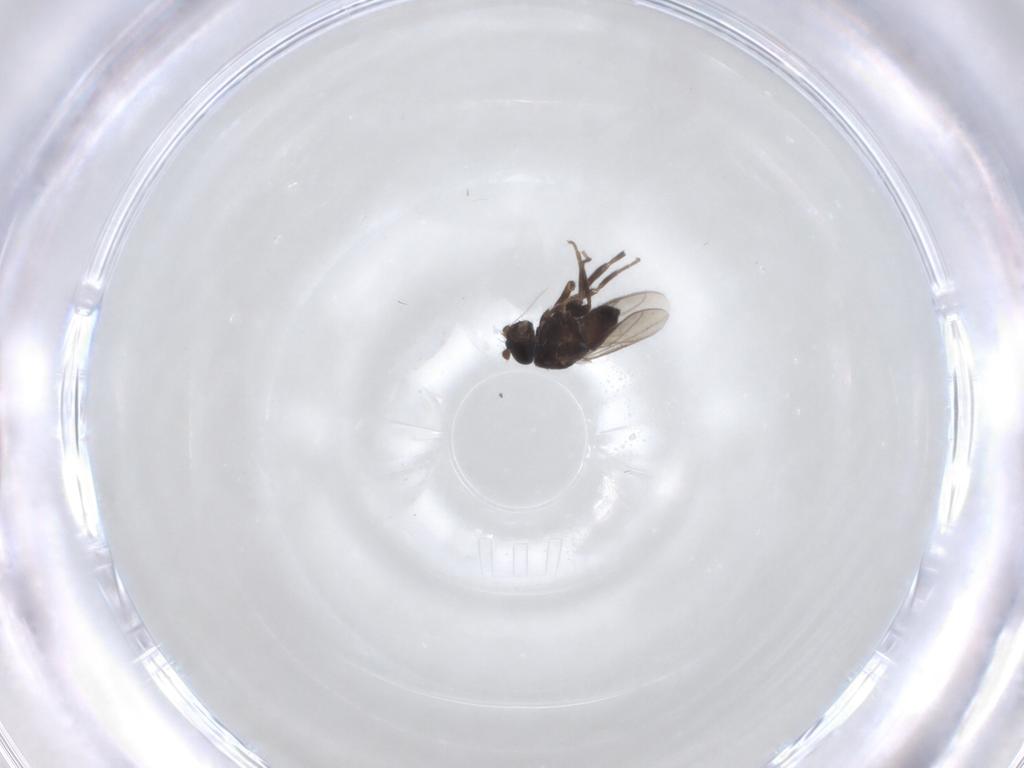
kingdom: Animalia
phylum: Arthropoda
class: Insecta
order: Diptera
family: Sphaeroceridae
